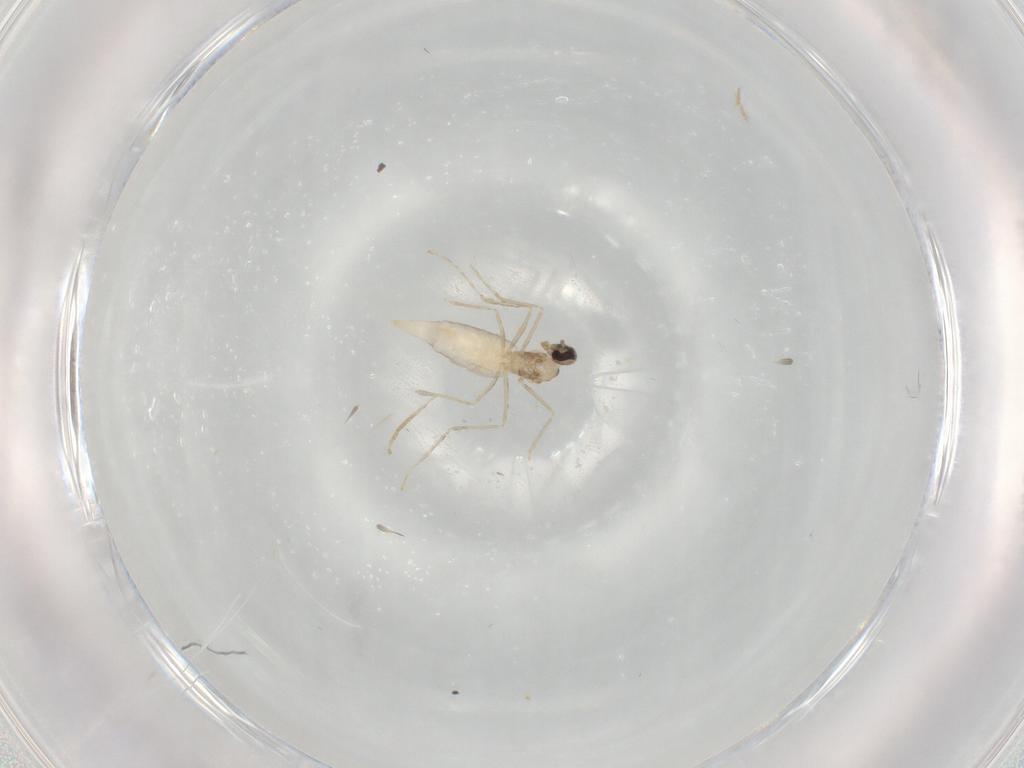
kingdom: Animalia
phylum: Arthropoda
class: Insecta
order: Diptera
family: Cecidomyiidae
